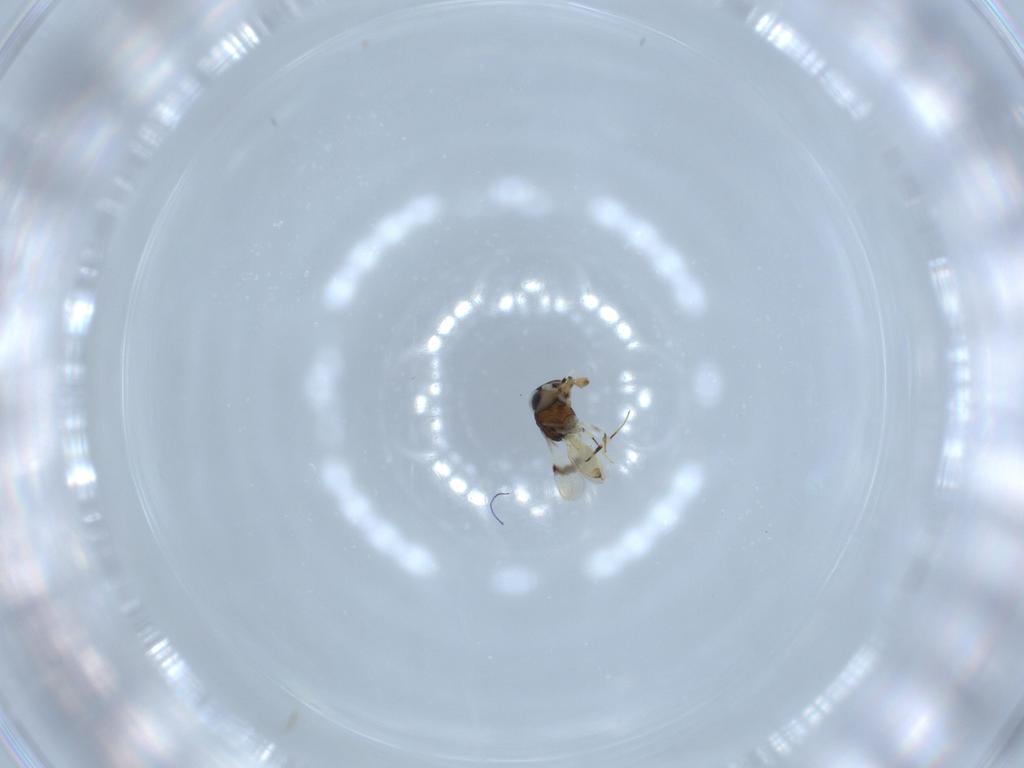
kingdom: Animalia
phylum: Arthropoda
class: Insecta
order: Hymenoptera
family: Scelionidae
